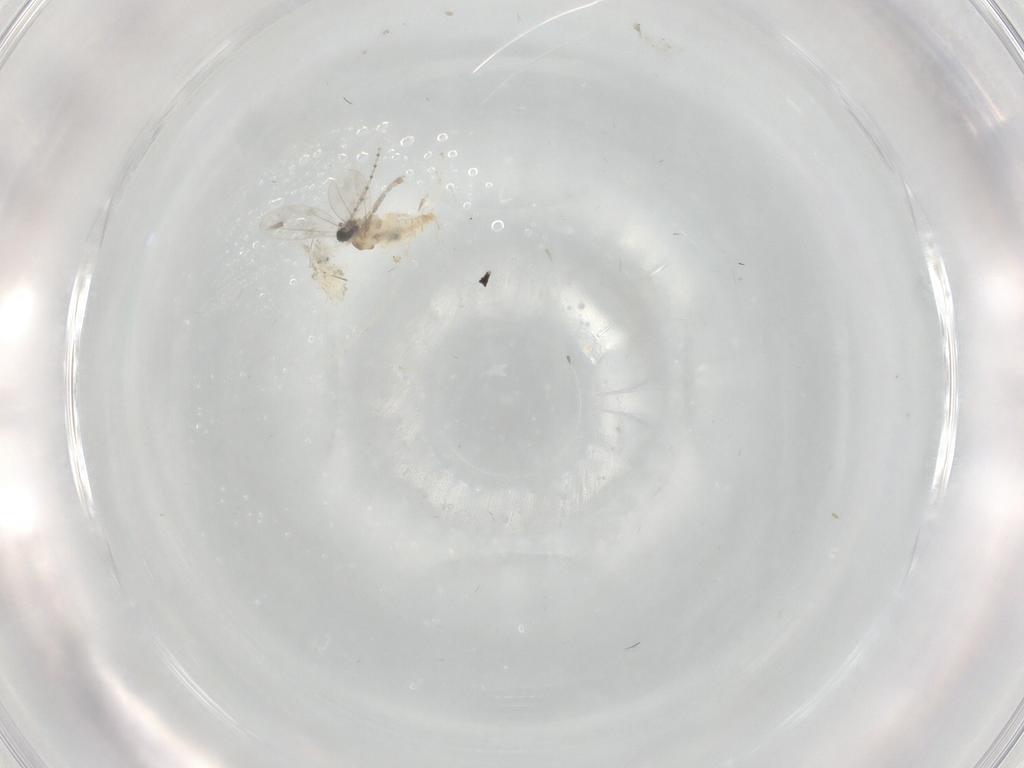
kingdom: Animalia
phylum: Arthropoda
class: Insecta
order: Diptera
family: Cecidomyiidae
